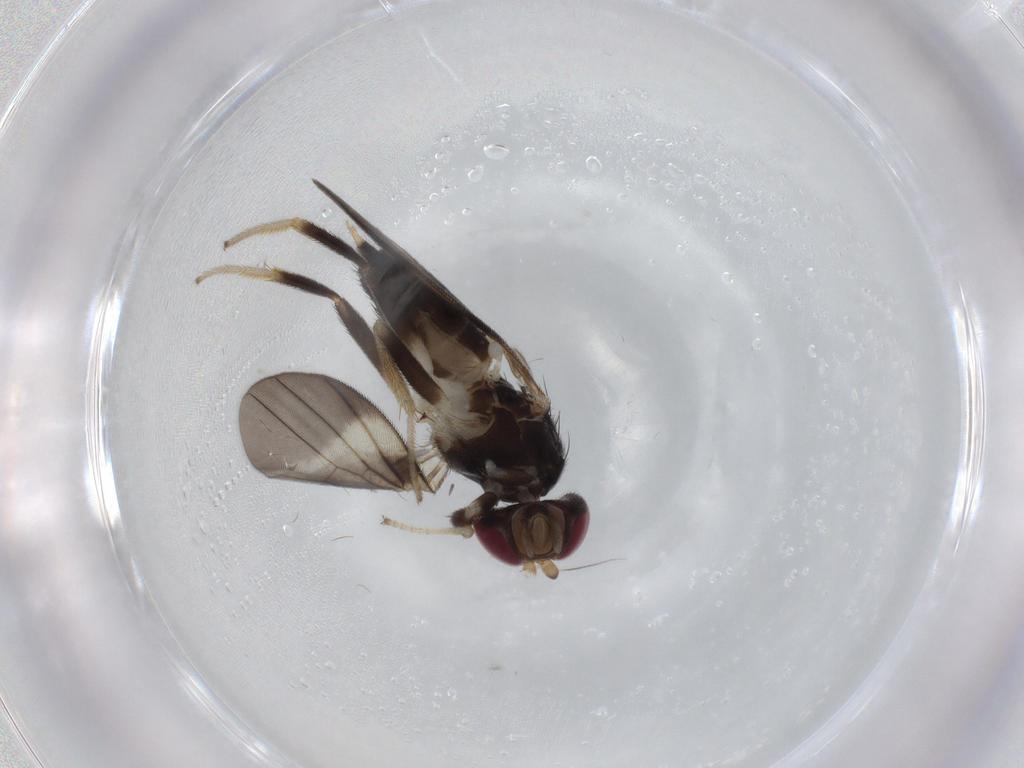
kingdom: Animalia
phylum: Arthropoda
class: Insecta
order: Diptera
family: Clusiidae
